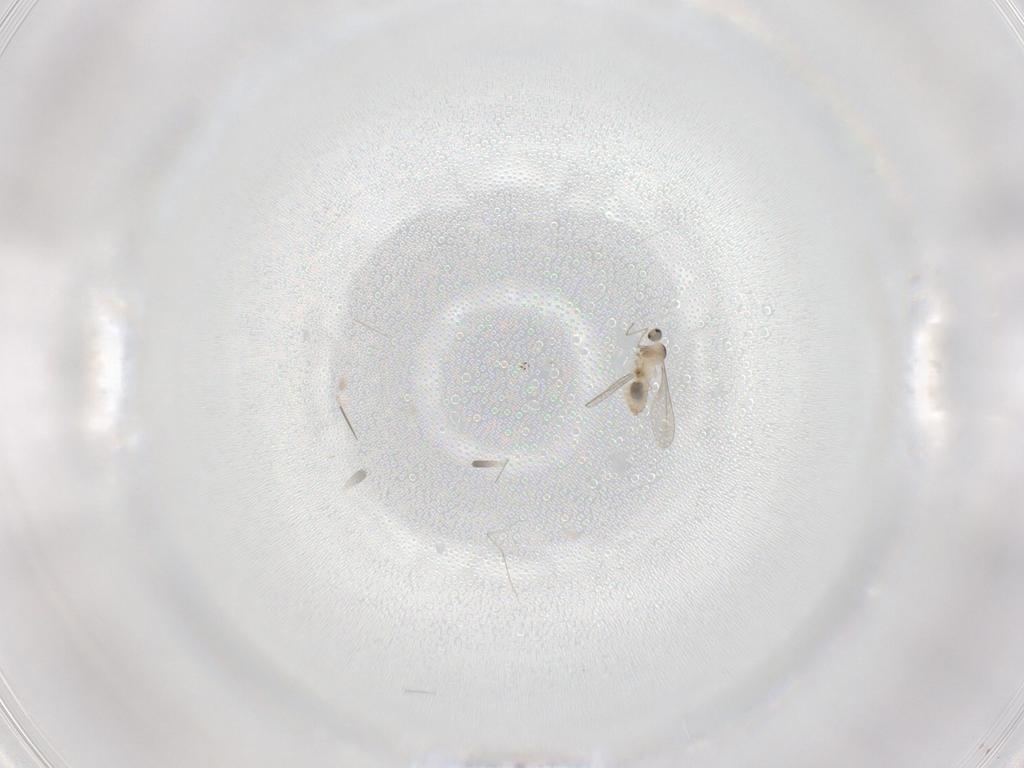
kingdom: Animalia
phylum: Arthropoda
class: Insecta
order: Diptera
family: Cecidomyiidae
